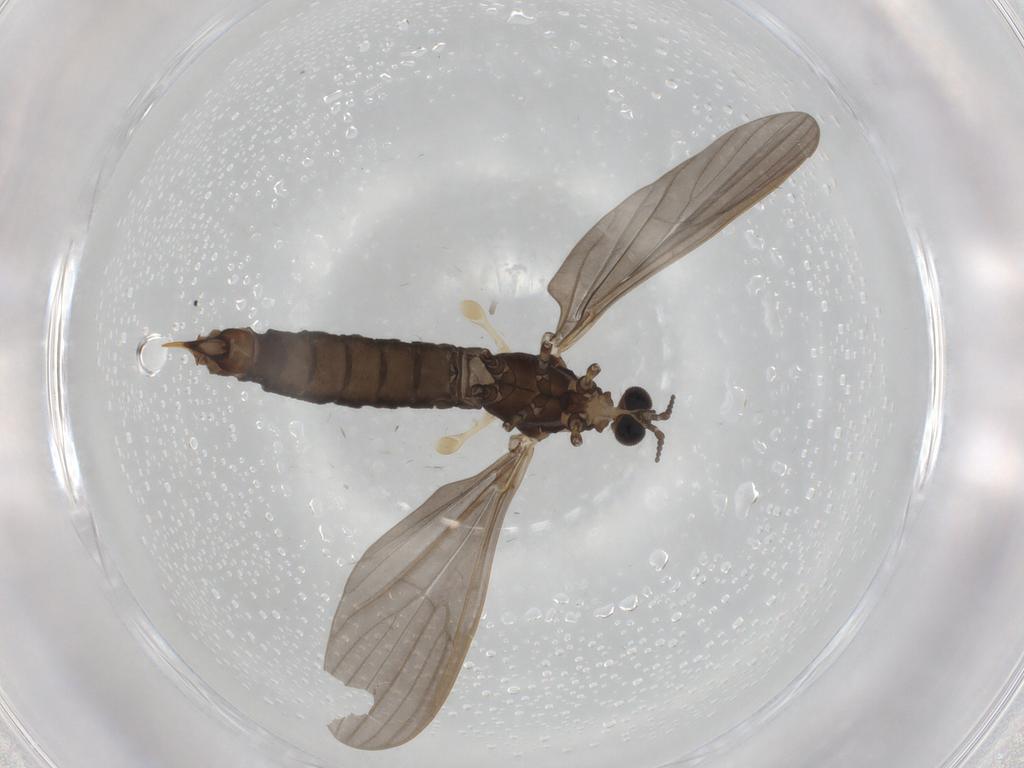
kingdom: Animalia
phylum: Arthropoda
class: Insecta
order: Diptera
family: Limoniidae
